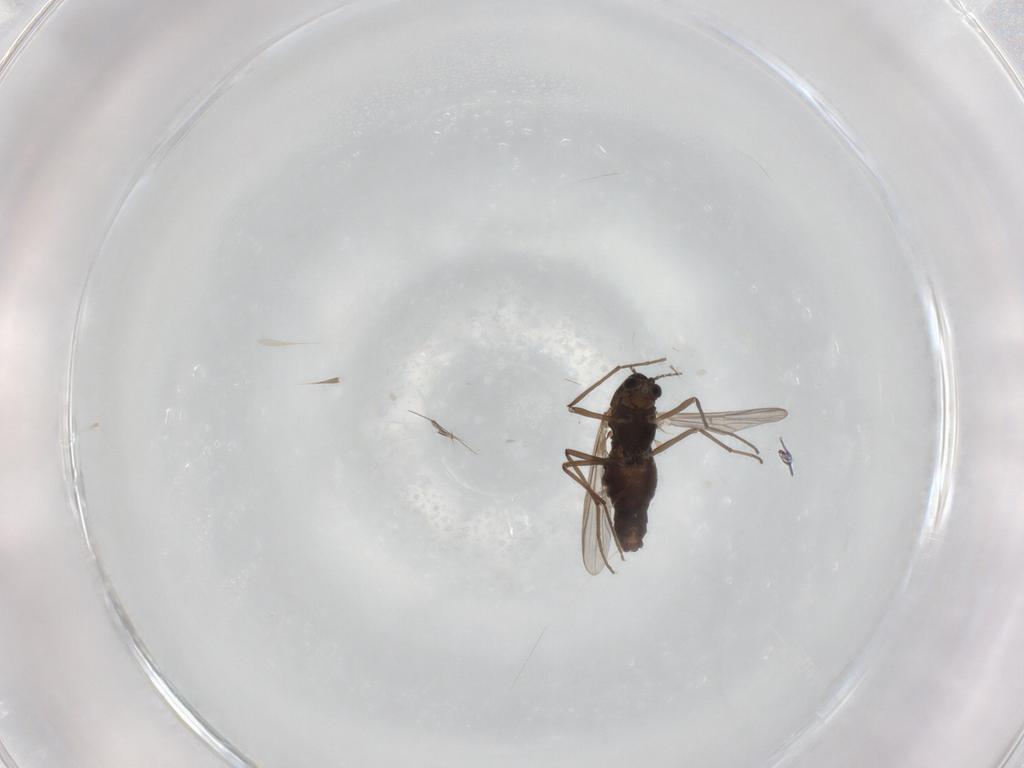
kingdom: Animalia
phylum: Arthropoda
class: Insecta
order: Diptera
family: Chironomidae
